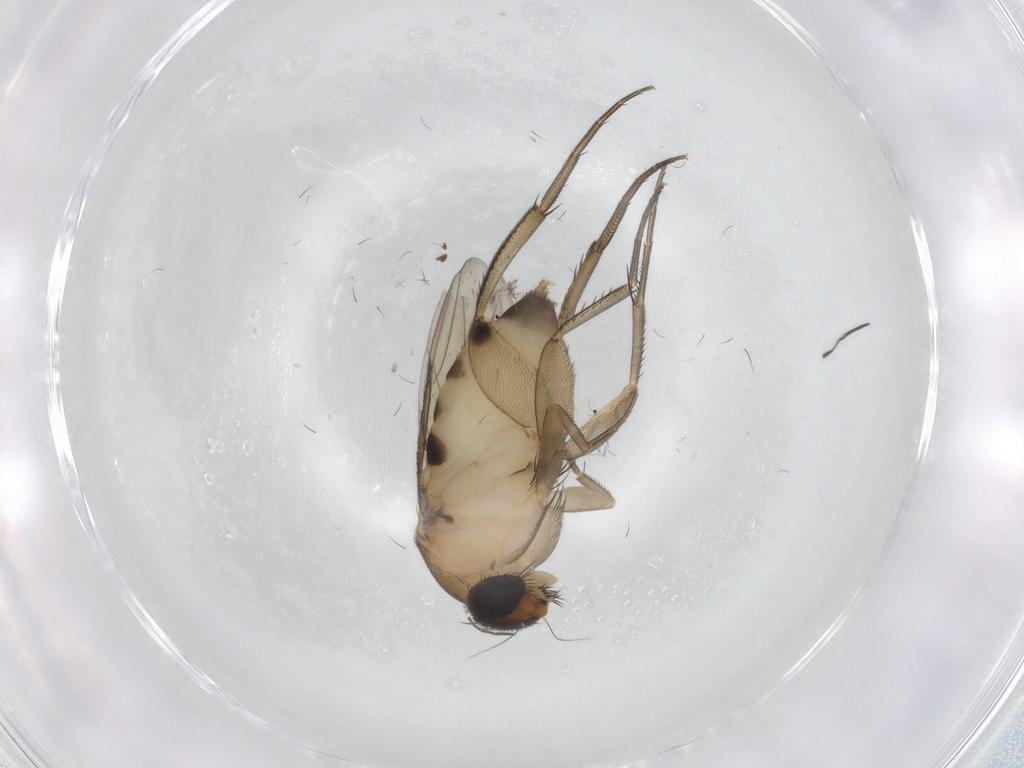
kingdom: Animalia
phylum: Arthropoda
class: Insecta
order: Diptera
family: Phoridae
